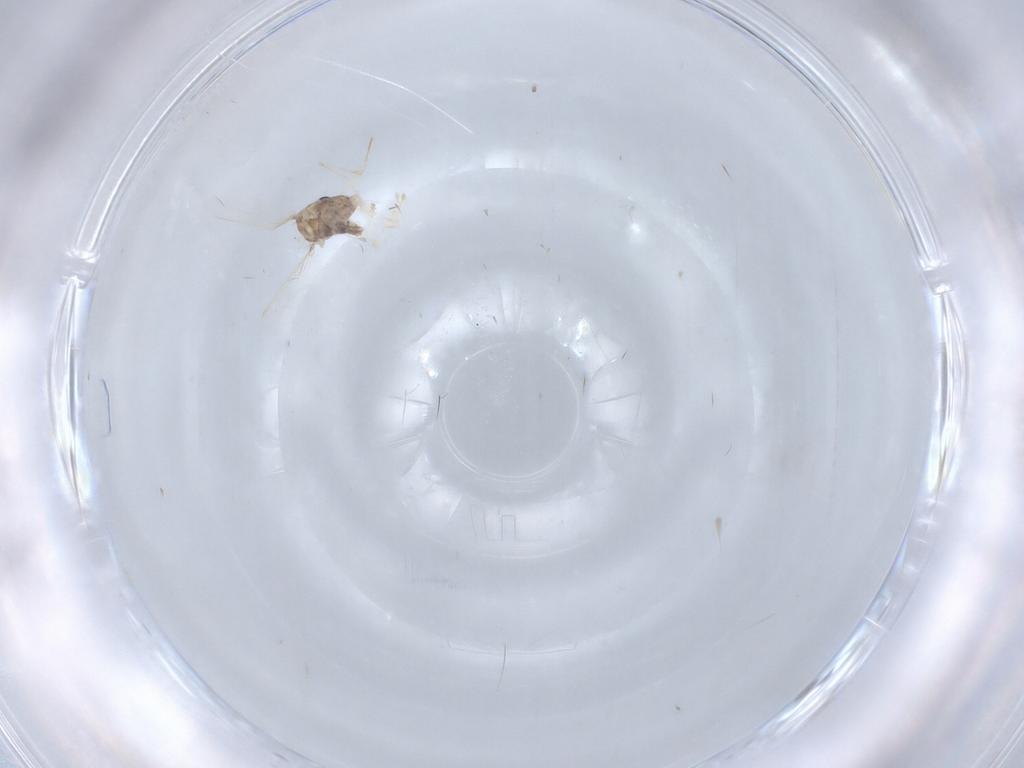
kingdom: Animalia
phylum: Arthropoda
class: Insecta
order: Diptera
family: Chironomidae
